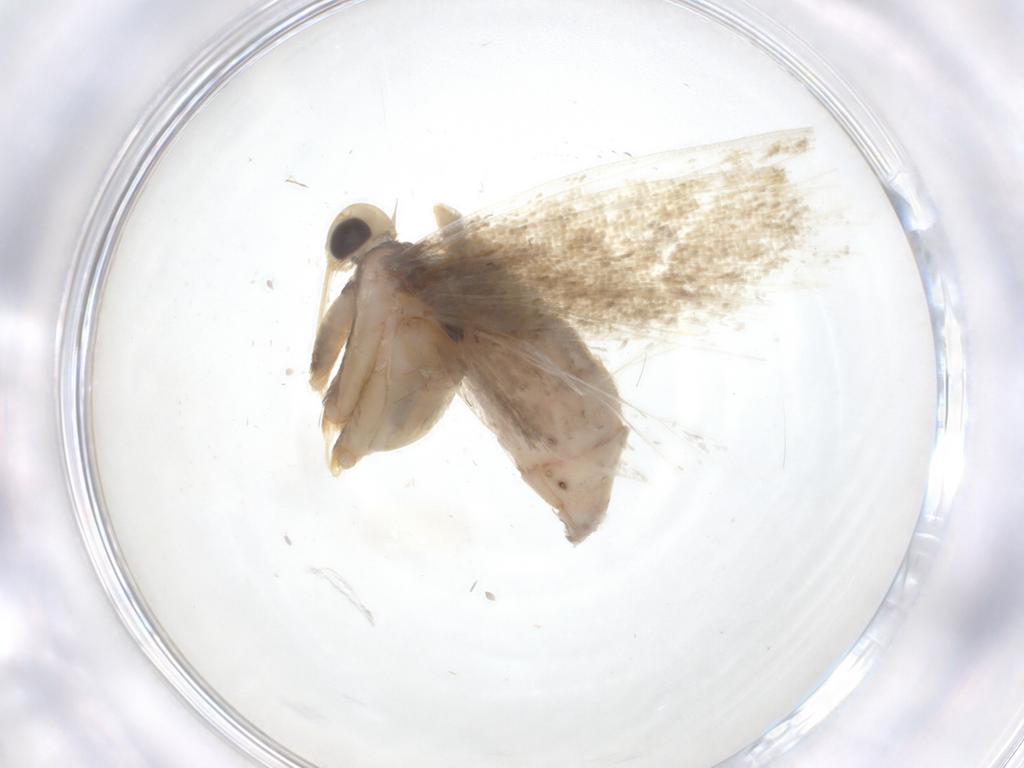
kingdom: Animalia
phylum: Arthropoda
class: Insecta
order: Lepidoptera
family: Autostichidae
